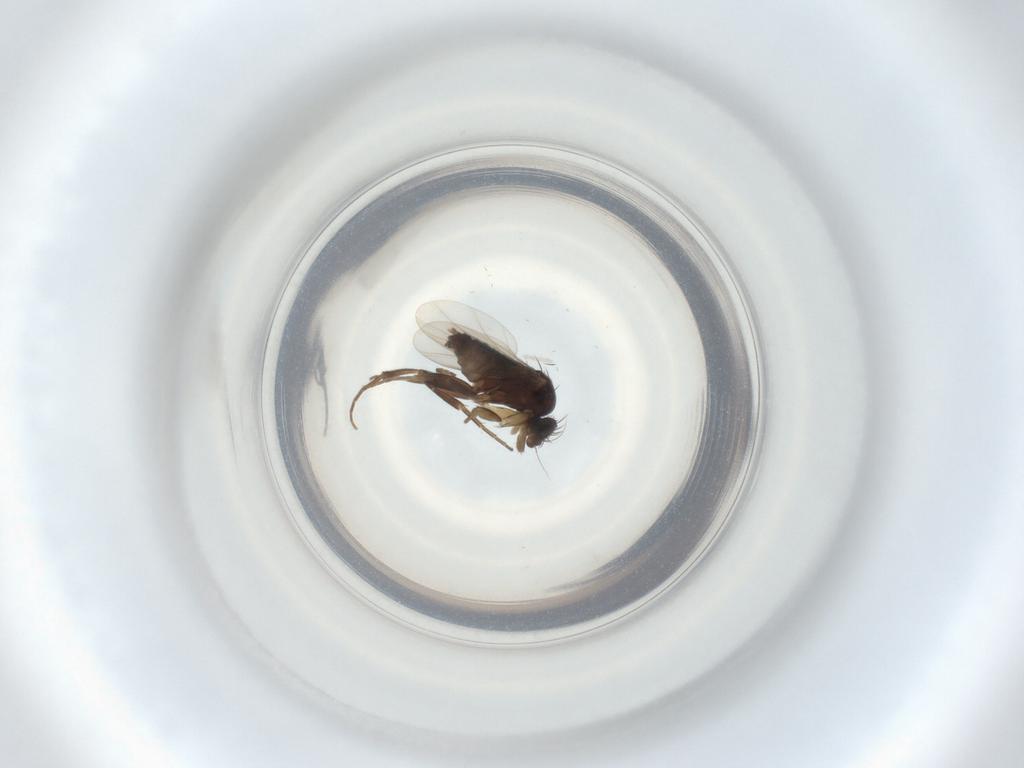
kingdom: Animalia
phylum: Arthropoda
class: Insecta
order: Diptera
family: Phoridae
